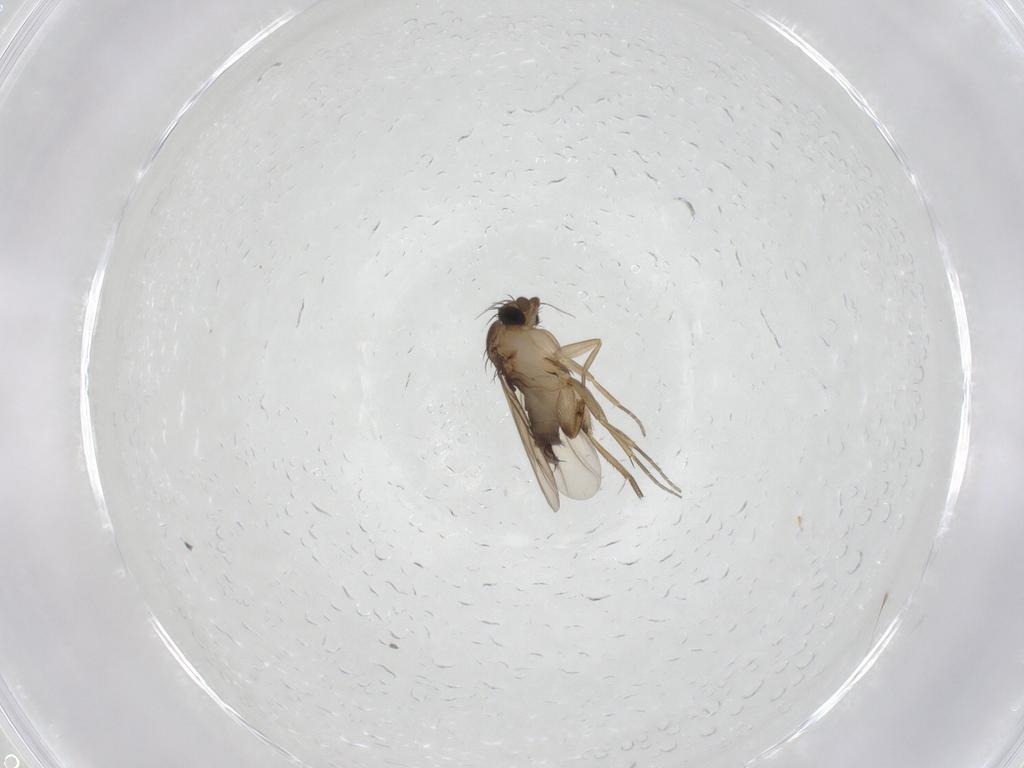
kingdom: Animalia
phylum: Arthropoda
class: Insecta
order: Diptera
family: Phoridae
